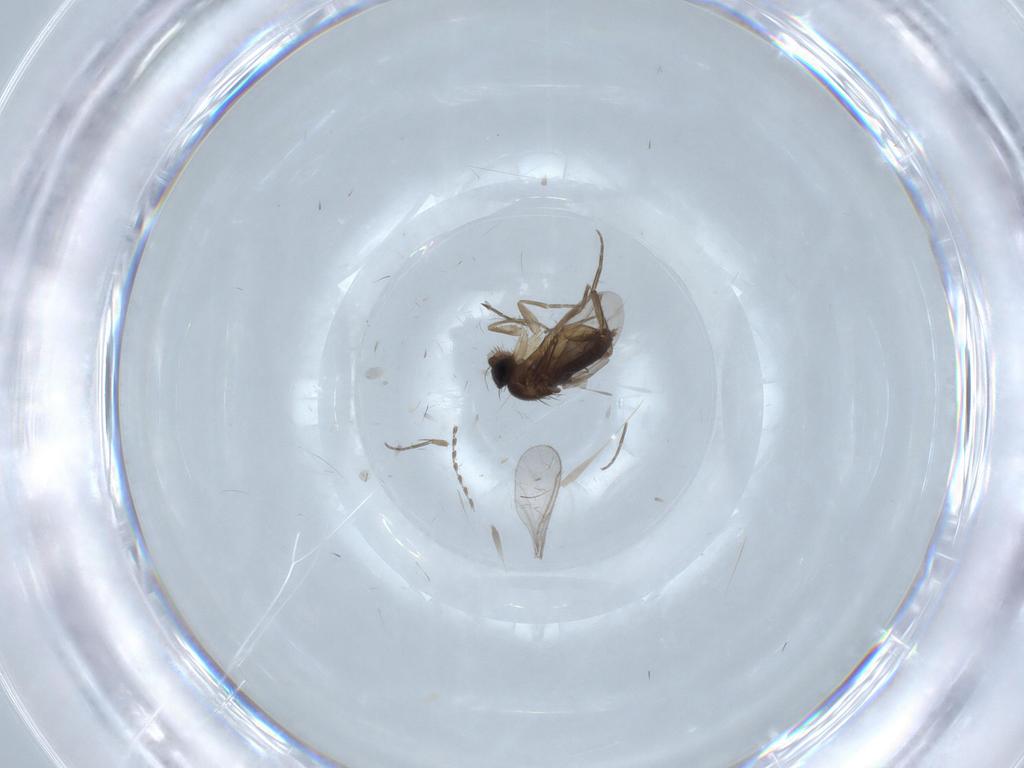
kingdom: Animalia
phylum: Arthropoda
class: Insecta
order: Diptera
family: Phoridae
